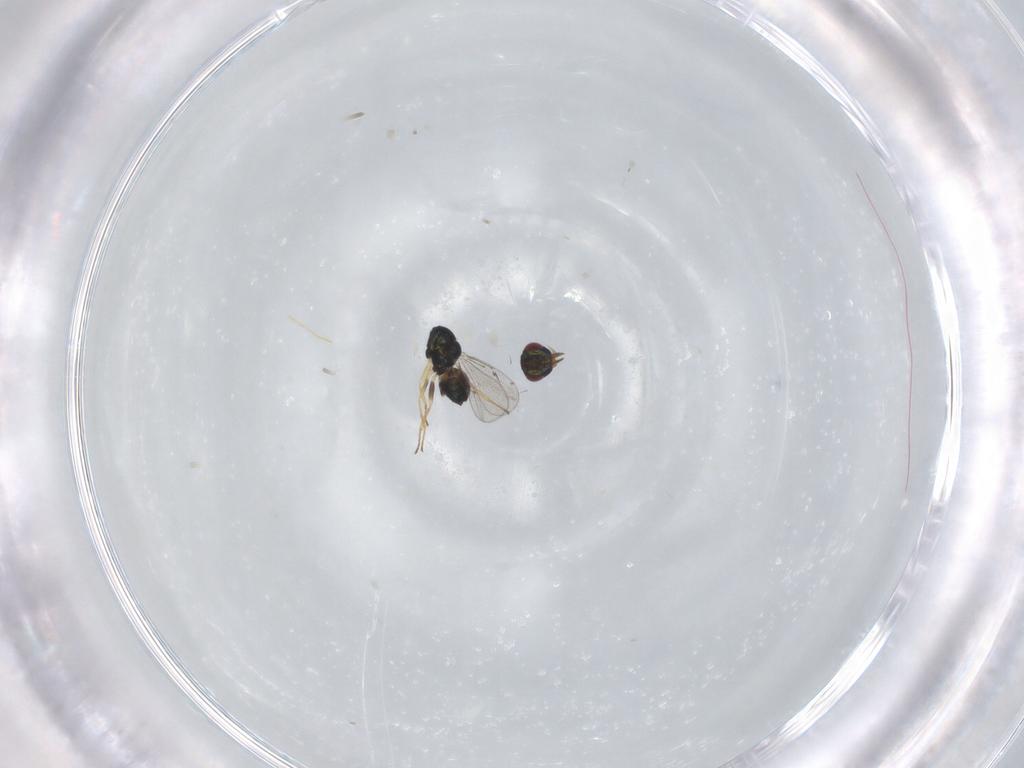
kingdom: Animalia
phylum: Arthropoda
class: Insecta
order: Hymenoptera
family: Eulophidae
